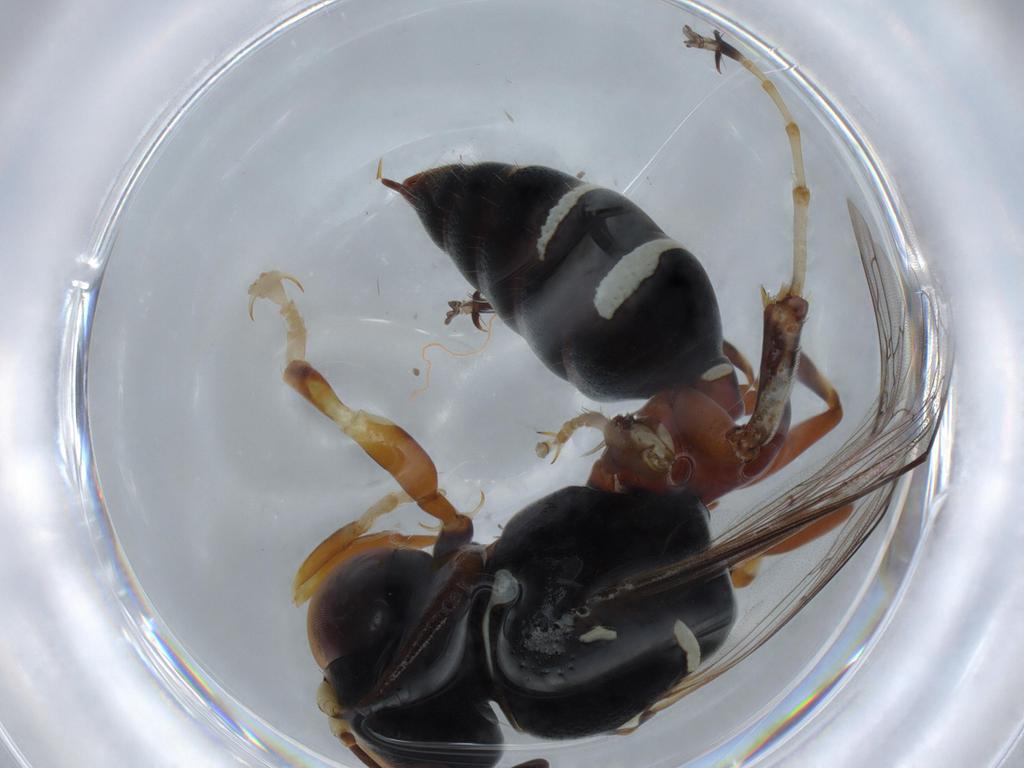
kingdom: Animalia
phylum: Arthropoda
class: Insecta
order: Hymenoptera
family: Crabronidae
